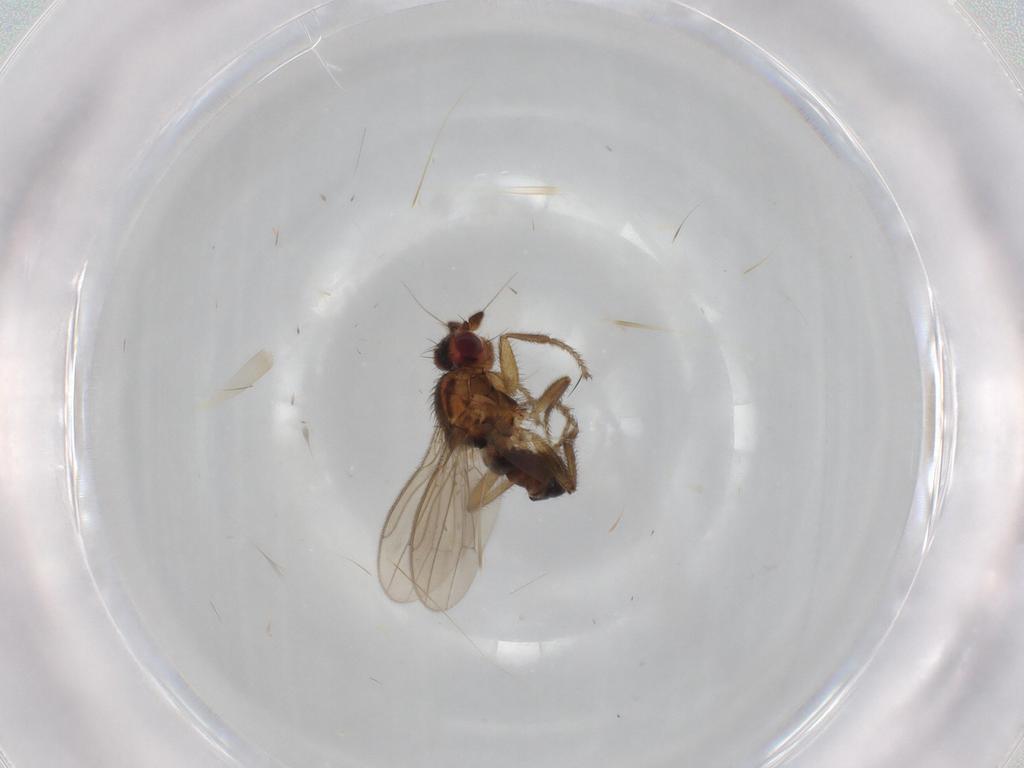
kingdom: Animalia
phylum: Arthropoda
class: Insecta
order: Diptera
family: Sphaeroceridae
